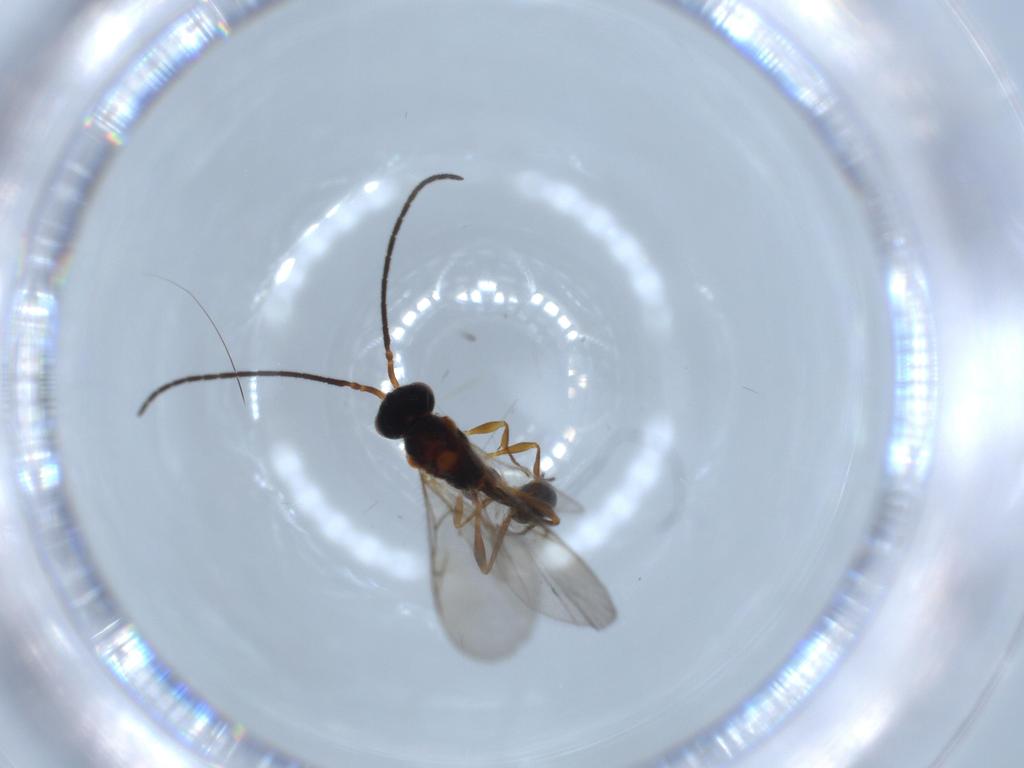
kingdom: Animalia
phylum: Arthropoda
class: Insecta
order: Hymenoptera
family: Encyrtidae
